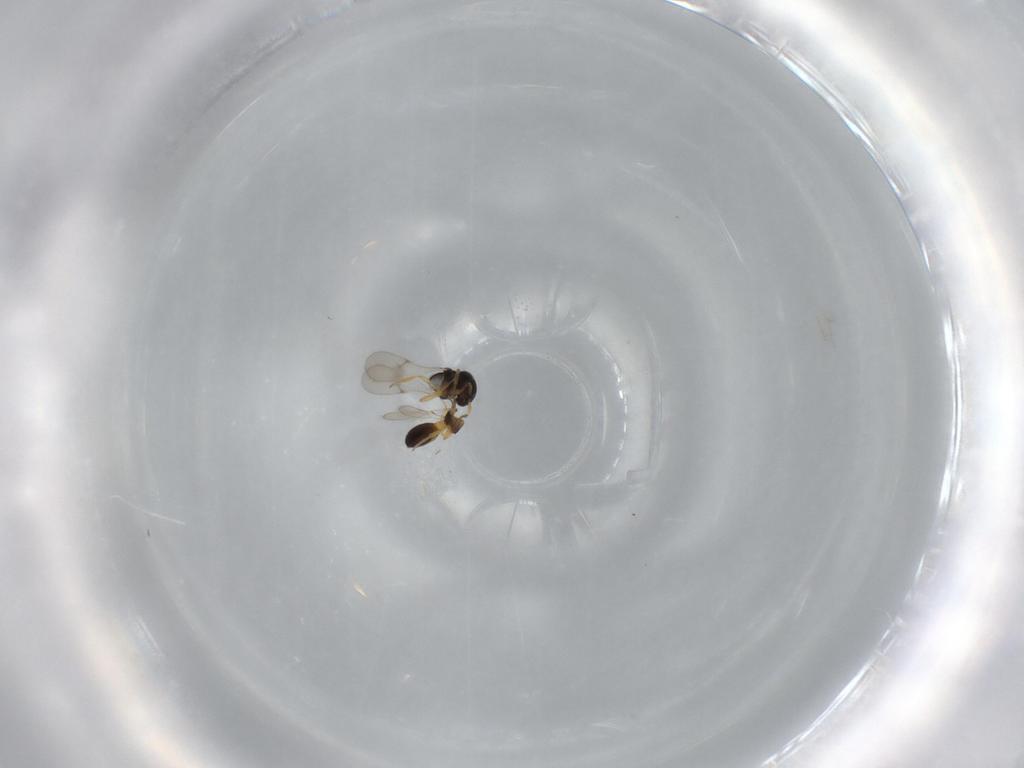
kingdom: Animalia
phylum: Arthropoda
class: Insecta
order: Hymenoptera
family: Scelionidae
